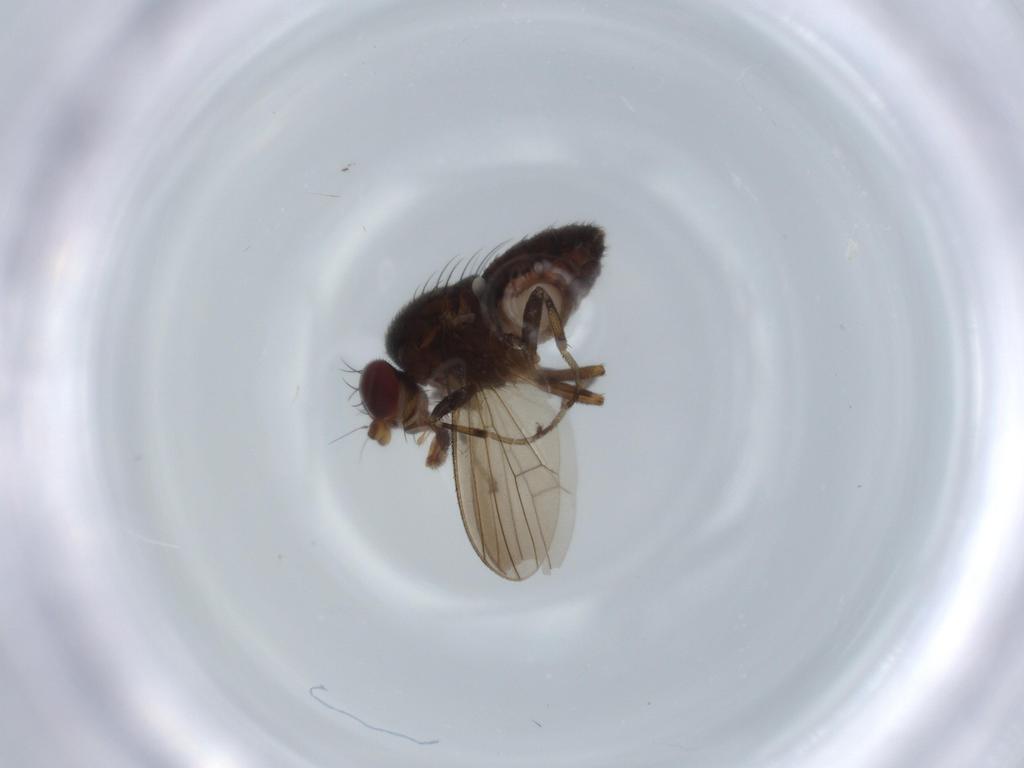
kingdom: Animalia
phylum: Arthropoda
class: Insecta
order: Diptera
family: Heleomyzidae
